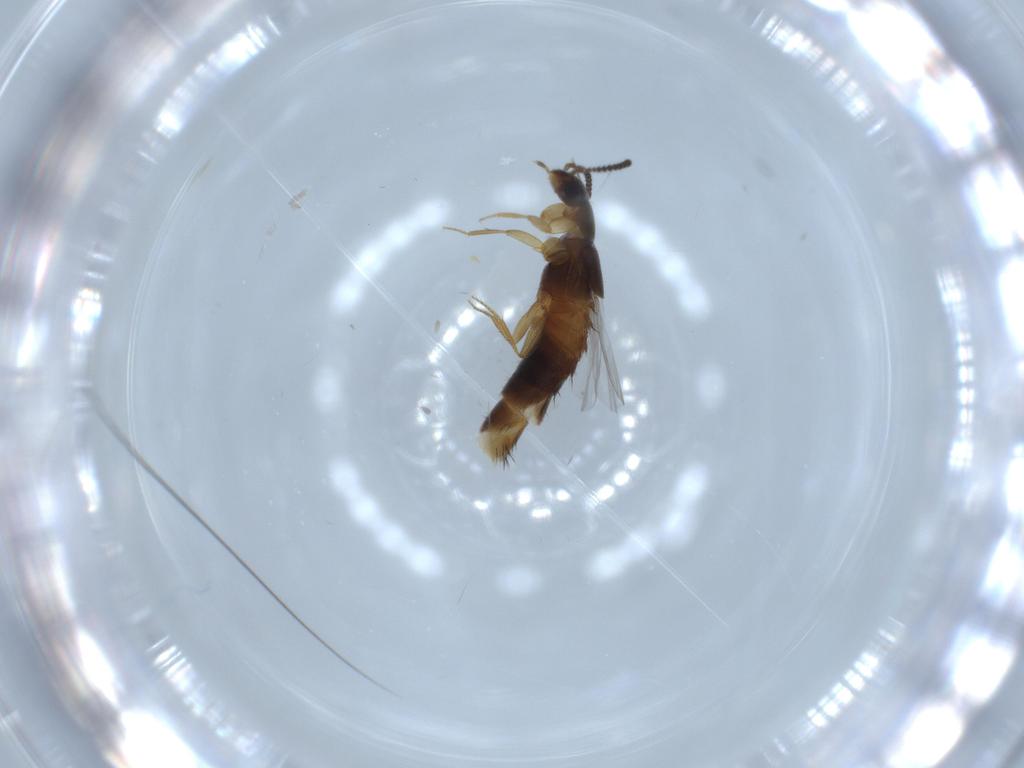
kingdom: Animalia
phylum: Arthropoda
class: Insecta
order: Coleoptera
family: Staphylinidae
